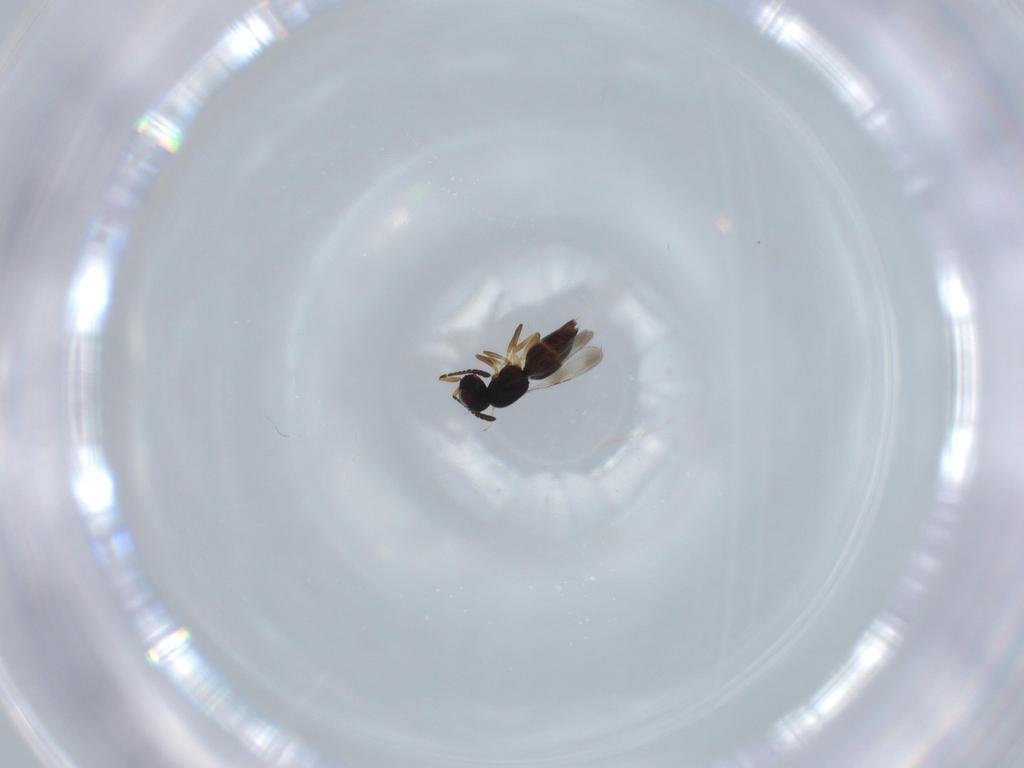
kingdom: Animalia
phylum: Arthropoda
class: Insecta
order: Hymenoptera
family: Ceraphronidae
